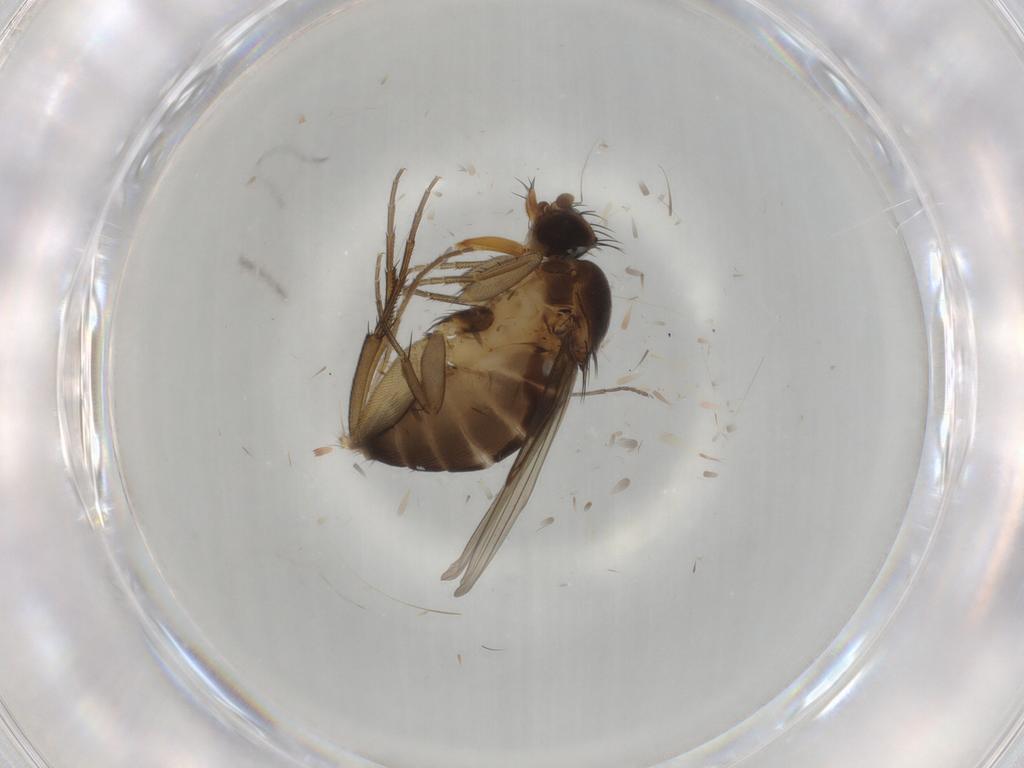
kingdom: Animalia
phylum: Arthropoda
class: Insecta
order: Diptera
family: Phoridae
